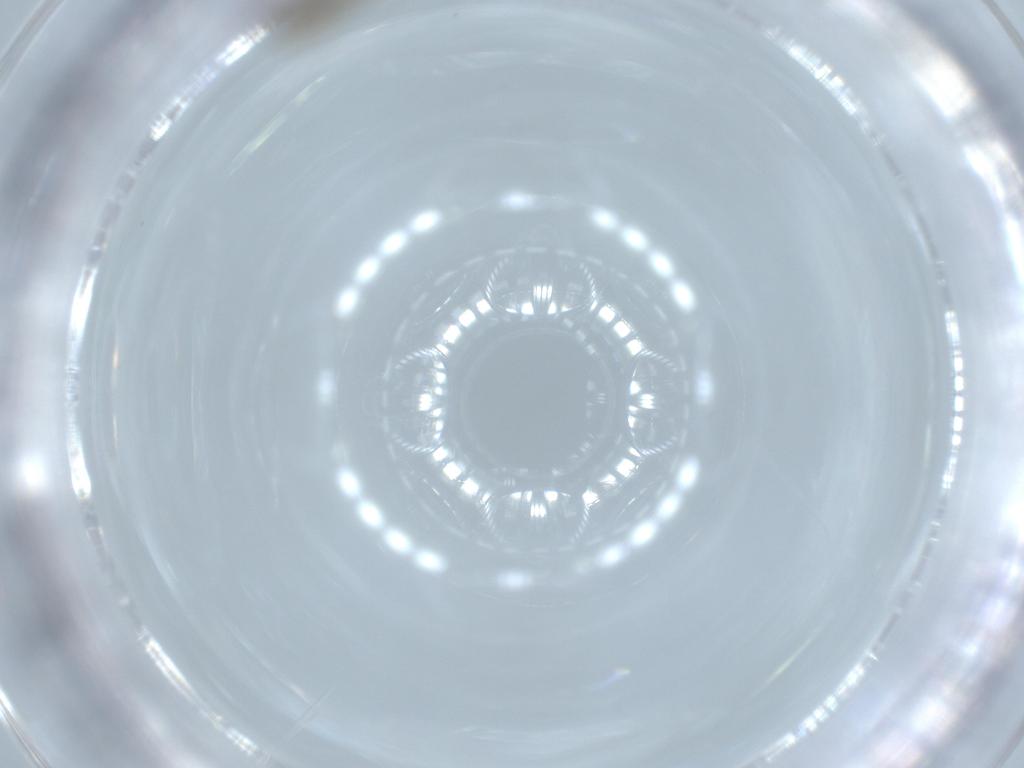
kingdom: Animalia
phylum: Arthropoda
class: Insecta
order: Diptera
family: Cecidomyiidae
